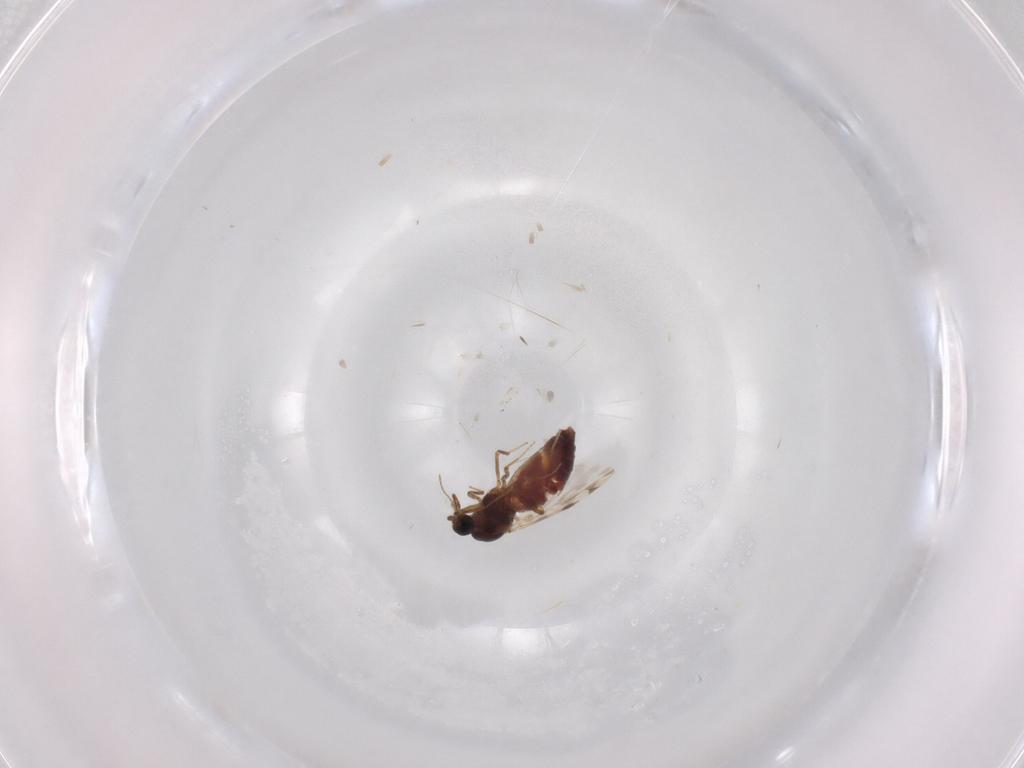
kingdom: Animalia
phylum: Arthropoda
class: Insecta
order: Diptera
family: Ceratopogonidae
